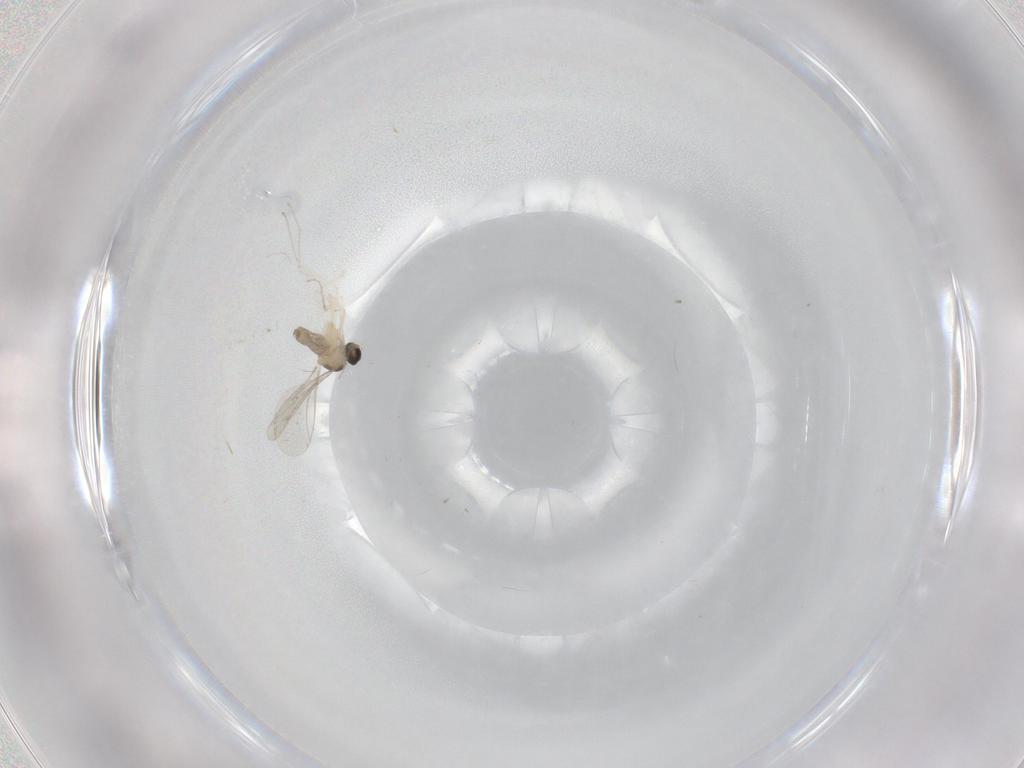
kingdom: Animalia
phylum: Arthropoda
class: Insecta
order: Diptera
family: Cecidomyiidae
